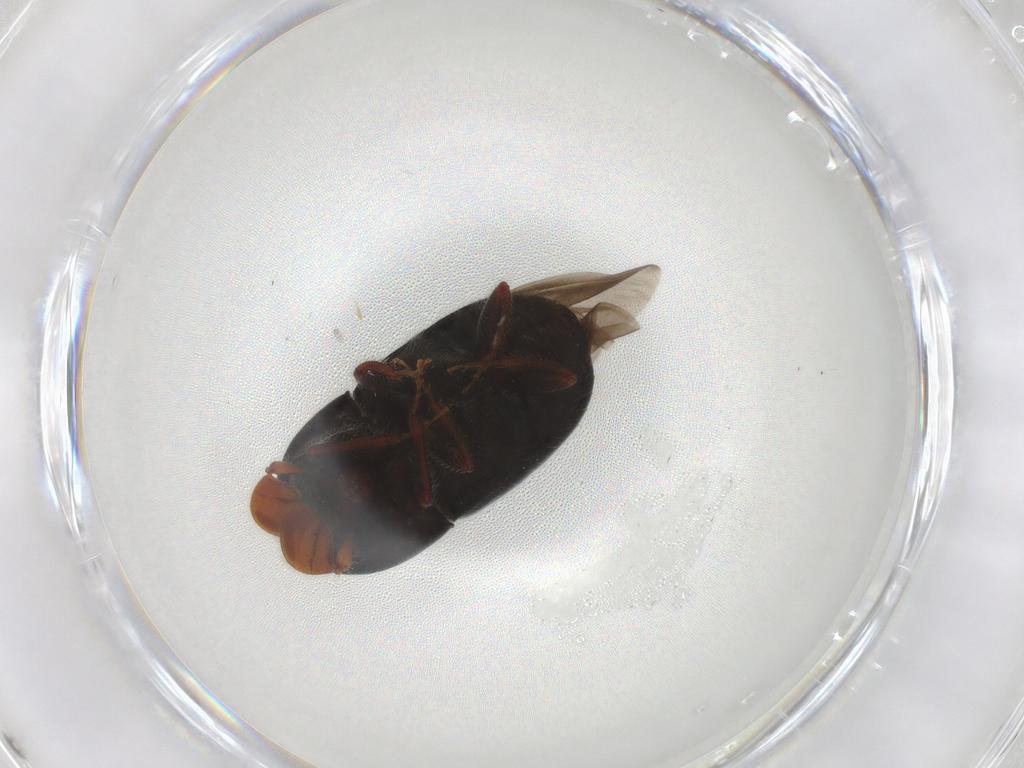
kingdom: Animalia
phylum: Arthropoda
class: Insecta
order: Coleoptera
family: Curculionidae
